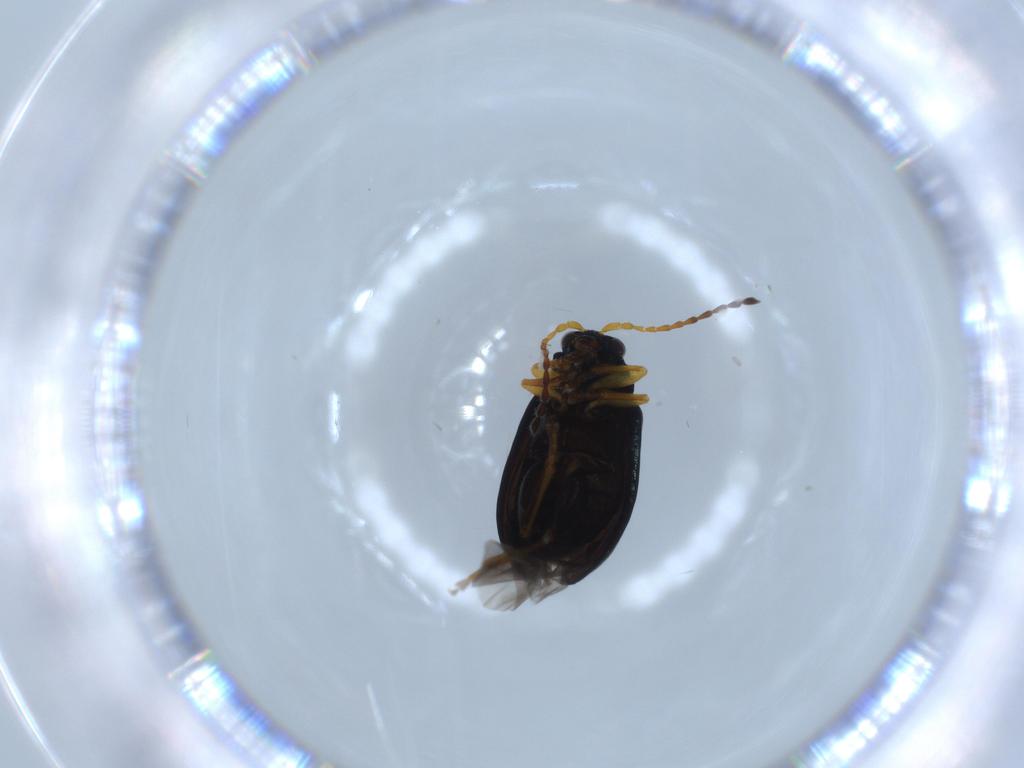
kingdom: Animalia
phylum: Arthropoda
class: Insecta
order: Coleoptera
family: Chrysomelidae
